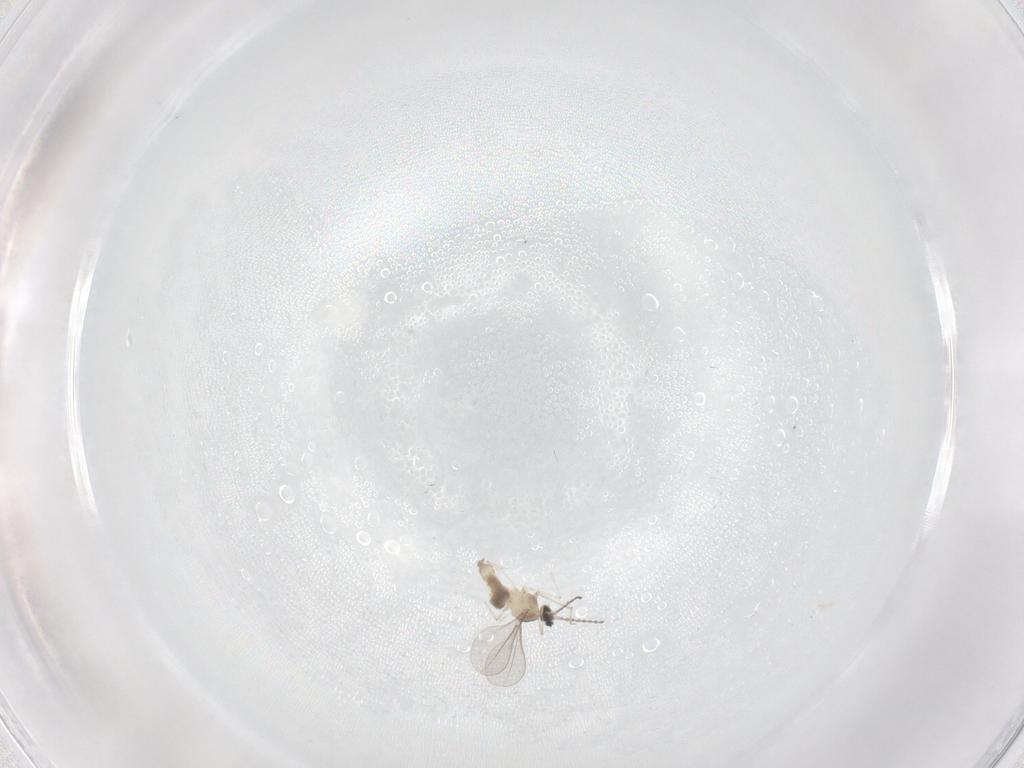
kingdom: Animalia
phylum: Arthropoda
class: Insecta
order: Diptera
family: Cecidomyiidae
